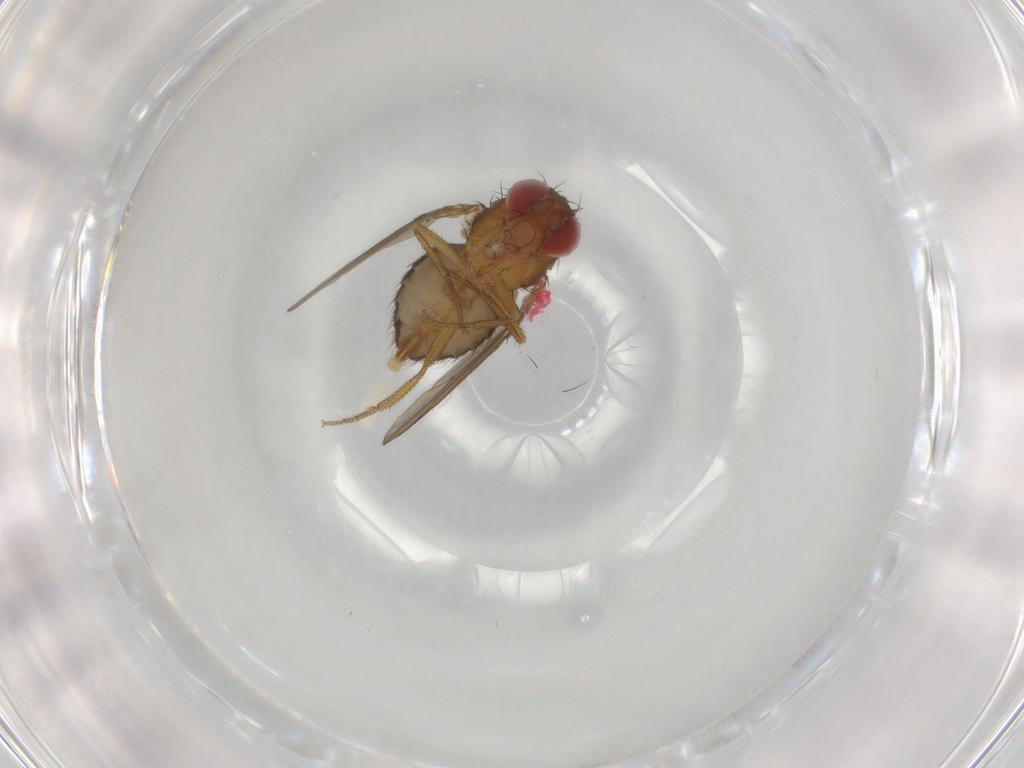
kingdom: Animalia
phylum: Arthropoda
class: Insecta
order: Diptera
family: Drosophilidae
